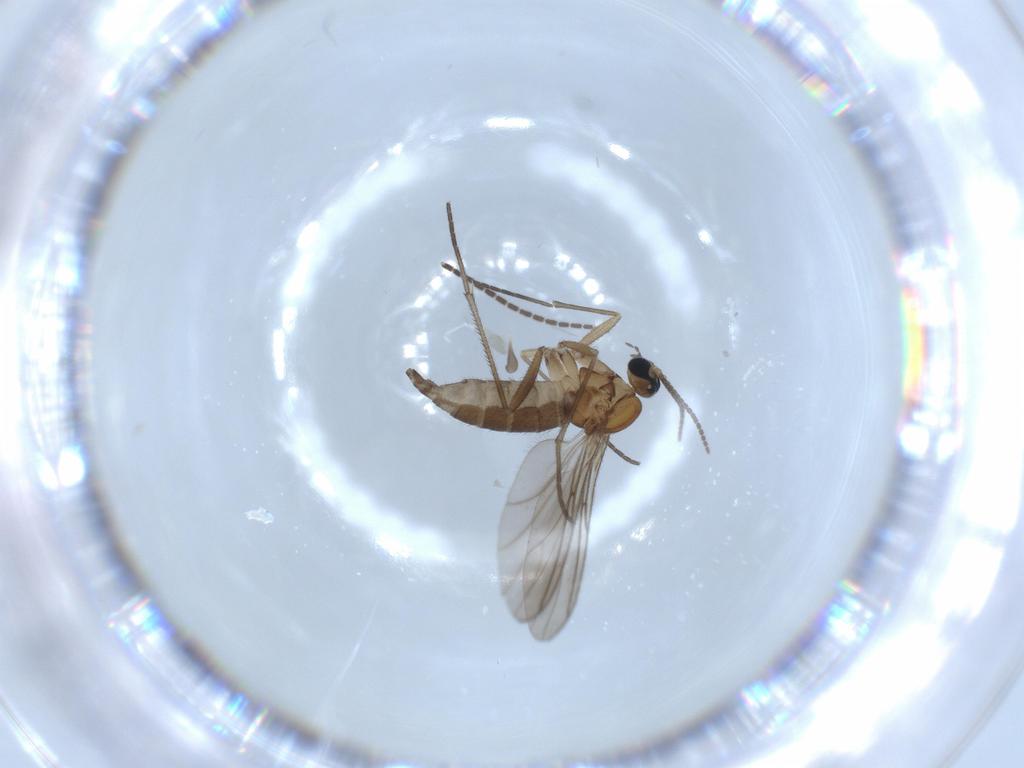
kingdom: Animalia
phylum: Arthropoda
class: Insecta
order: Diptera
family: Sciaridae
